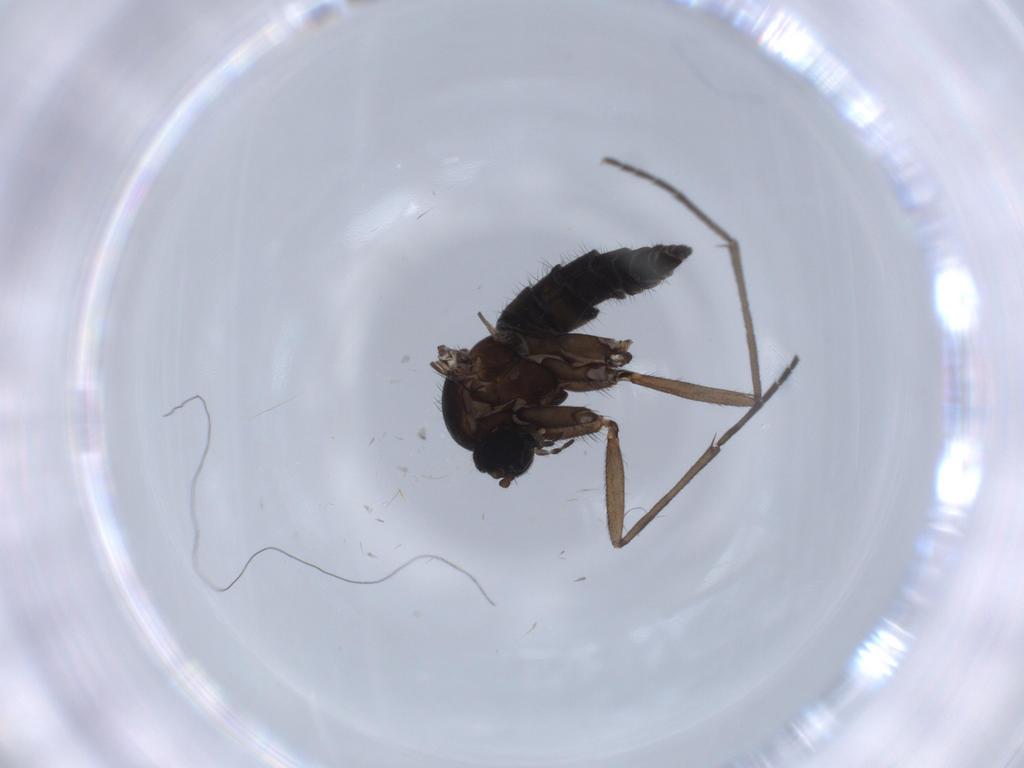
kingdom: Animalia
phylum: Arthropoda
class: Insecta
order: Diptera
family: Sciaridae
